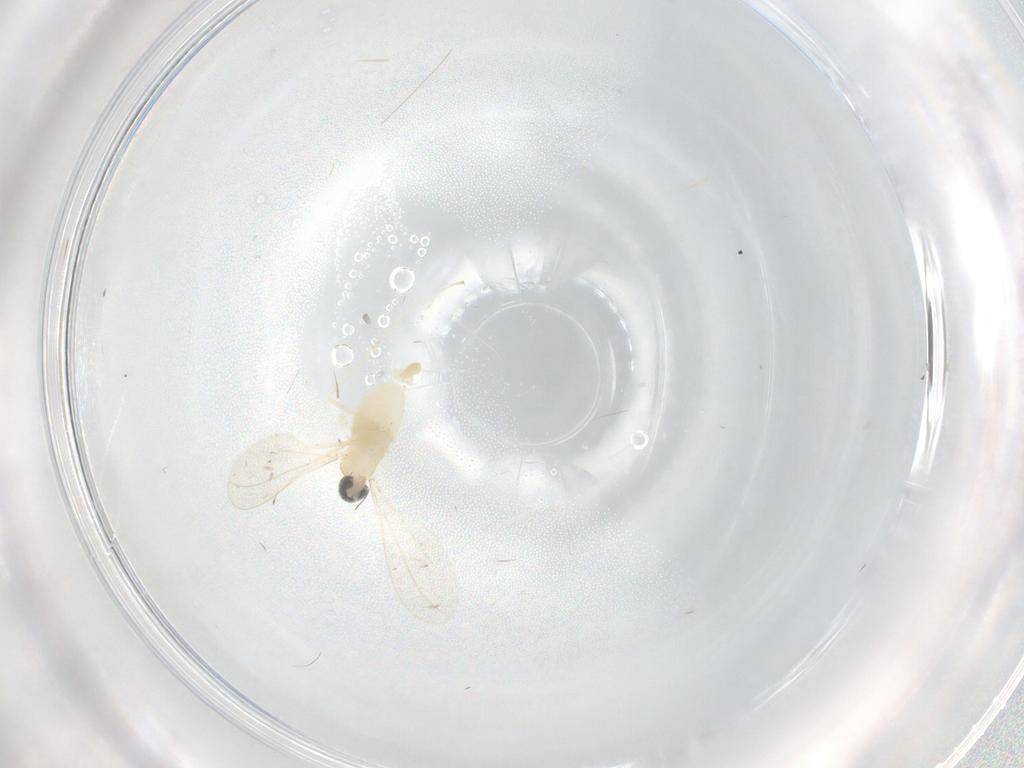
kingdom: Animalia
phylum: Arthropoda
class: Insecta
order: Diptera
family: Cecidomyiidae
